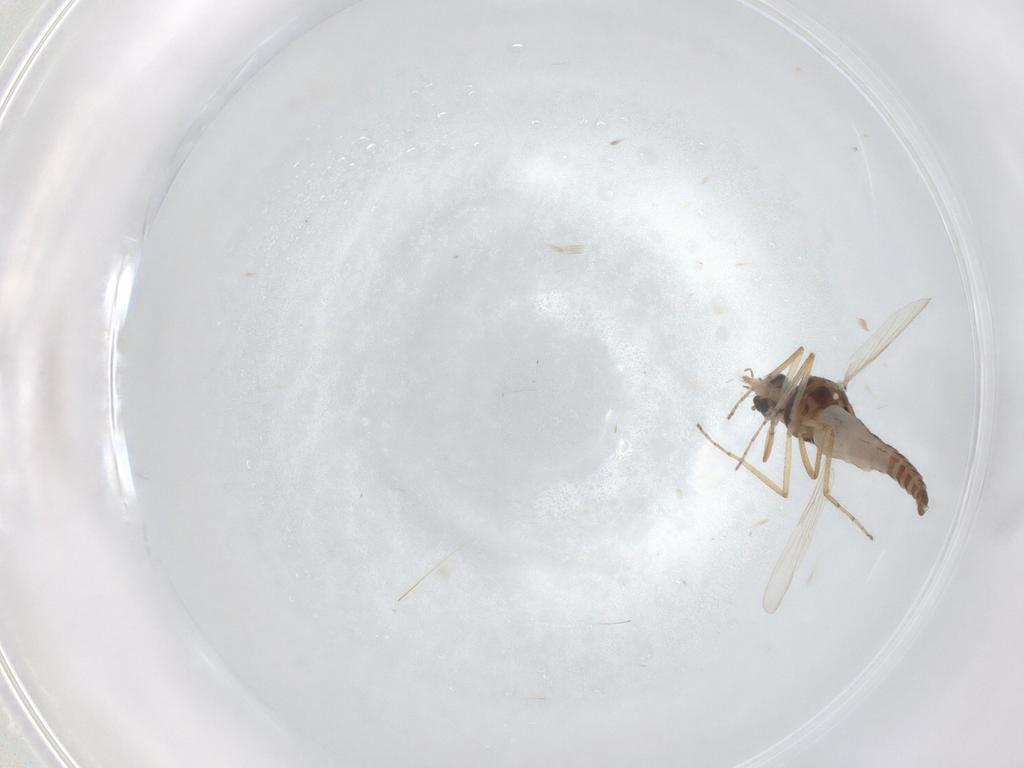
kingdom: Animalia
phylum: Arthropoda
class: Insecta
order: Diptera
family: Ceratopogonidae
